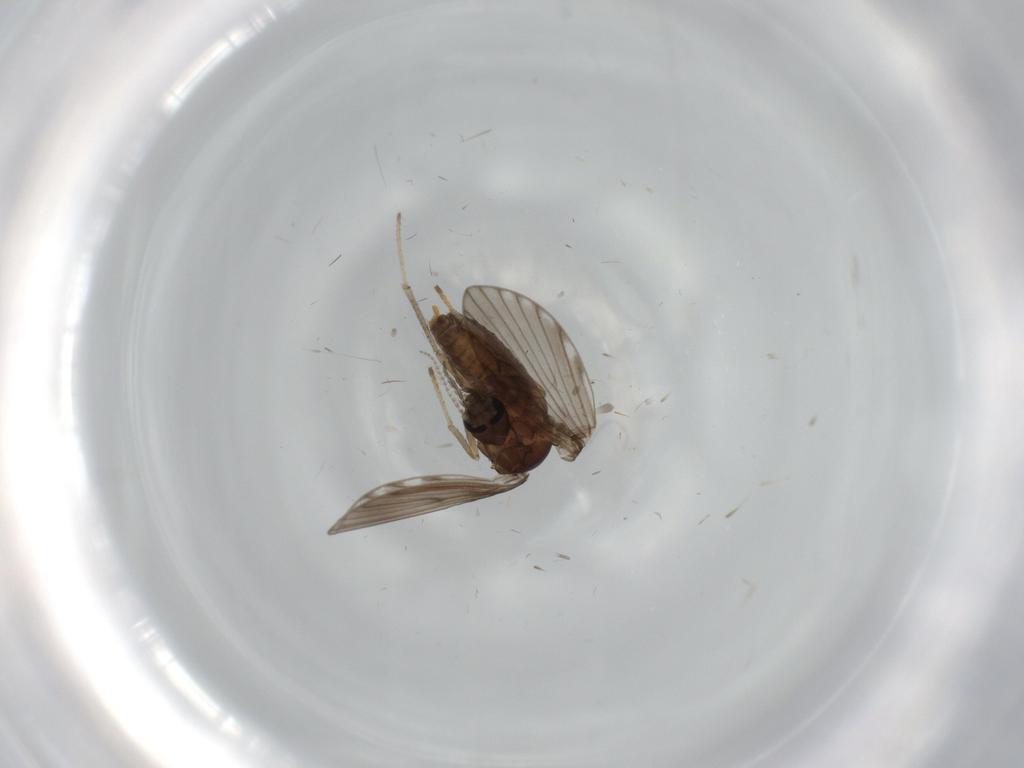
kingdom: Animalia
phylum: Arthropoda
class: Insecta
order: Diptera
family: Psychodidae
